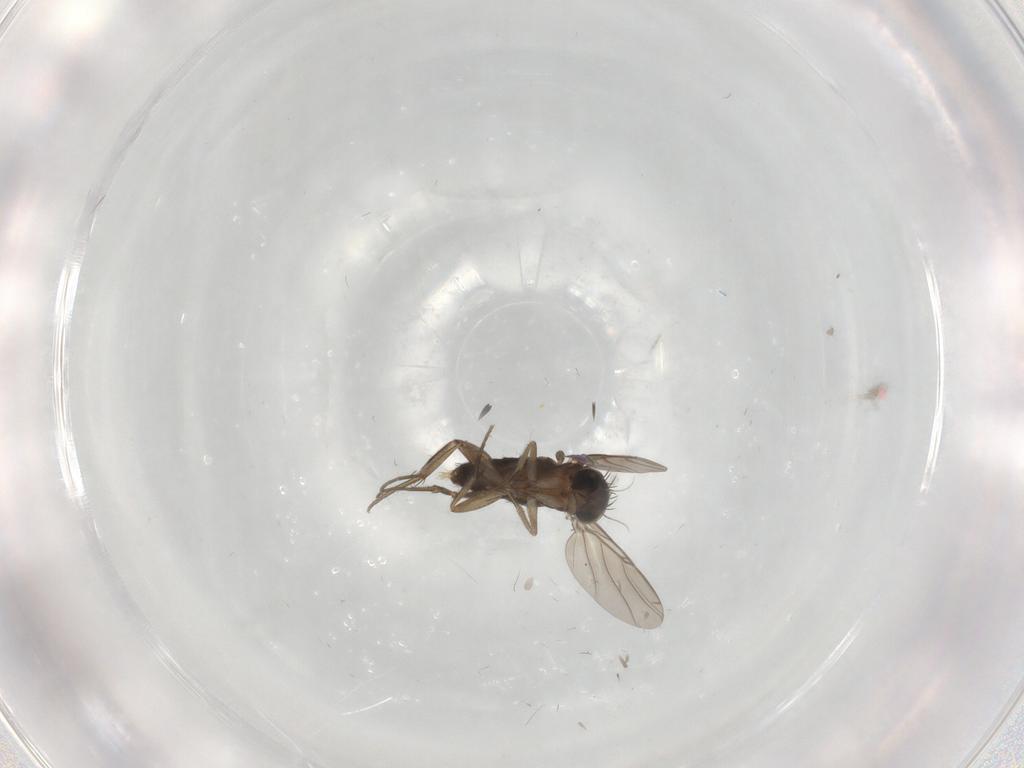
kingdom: Animalia
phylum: Arthropoda
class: Insecta
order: Diptera
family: Phoridae
